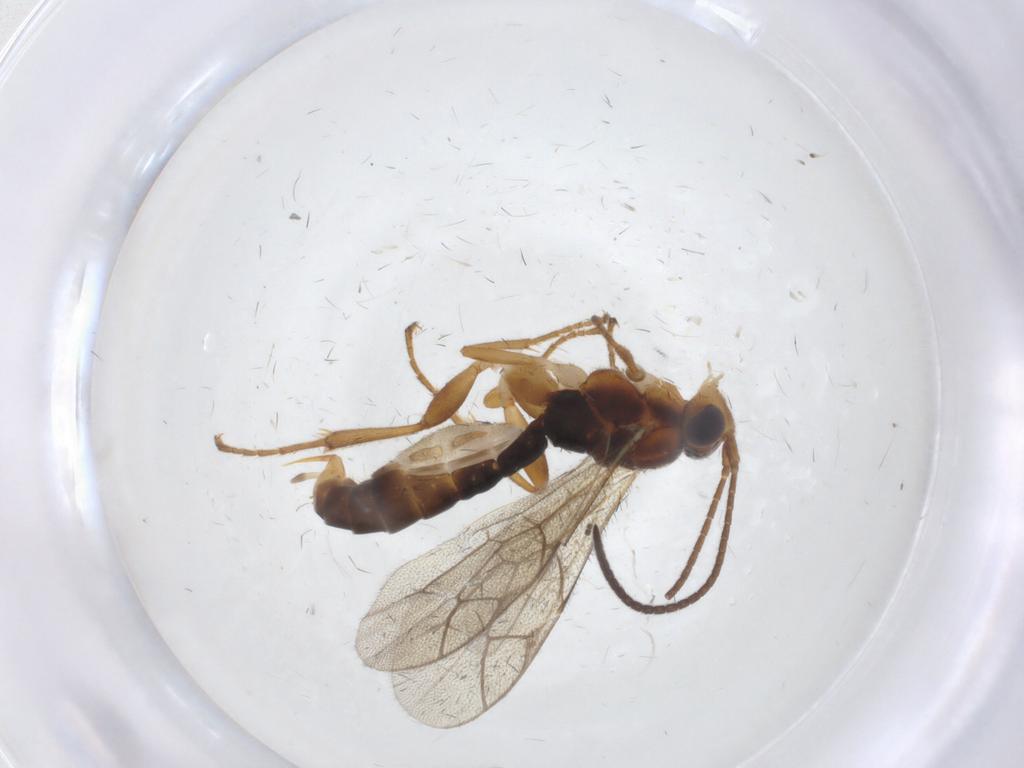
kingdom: Animalia
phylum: Arthropoda
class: Insecta
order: Hymenoptera
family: Ichneumonidae
